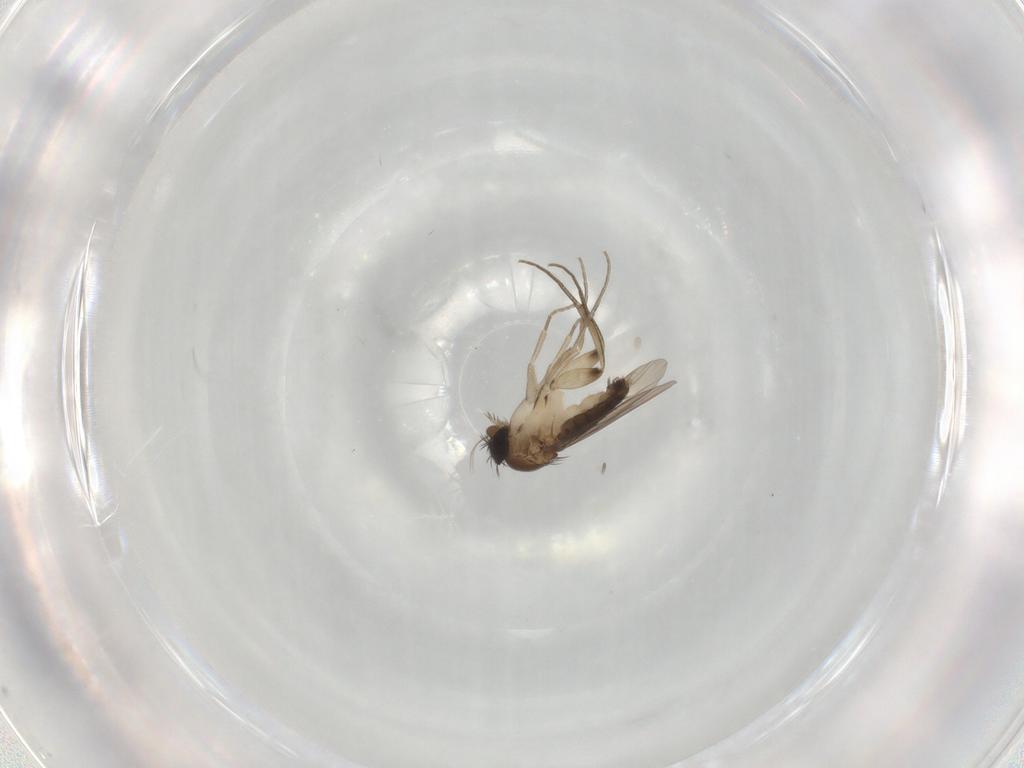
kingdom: Animalia
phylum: Arthropoda
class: Insecta
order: Diptera
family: Phoridae
